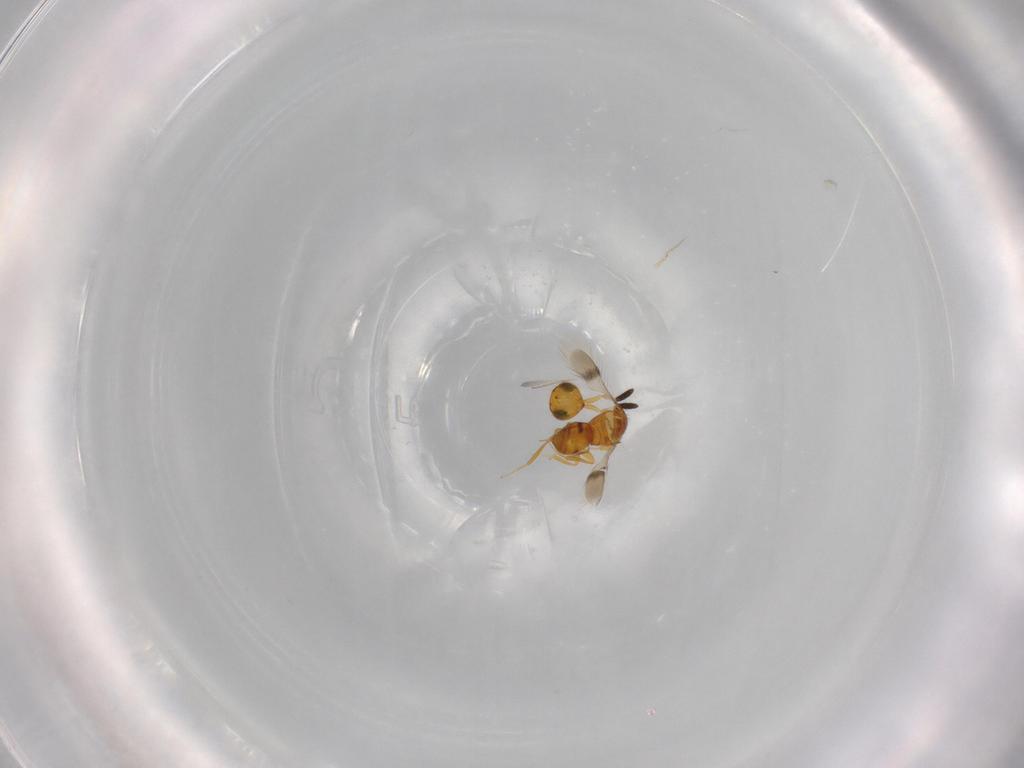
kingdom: Animalia
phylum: Arthropoda
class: Insecta
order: Hymenoptera
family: Scelionidae
